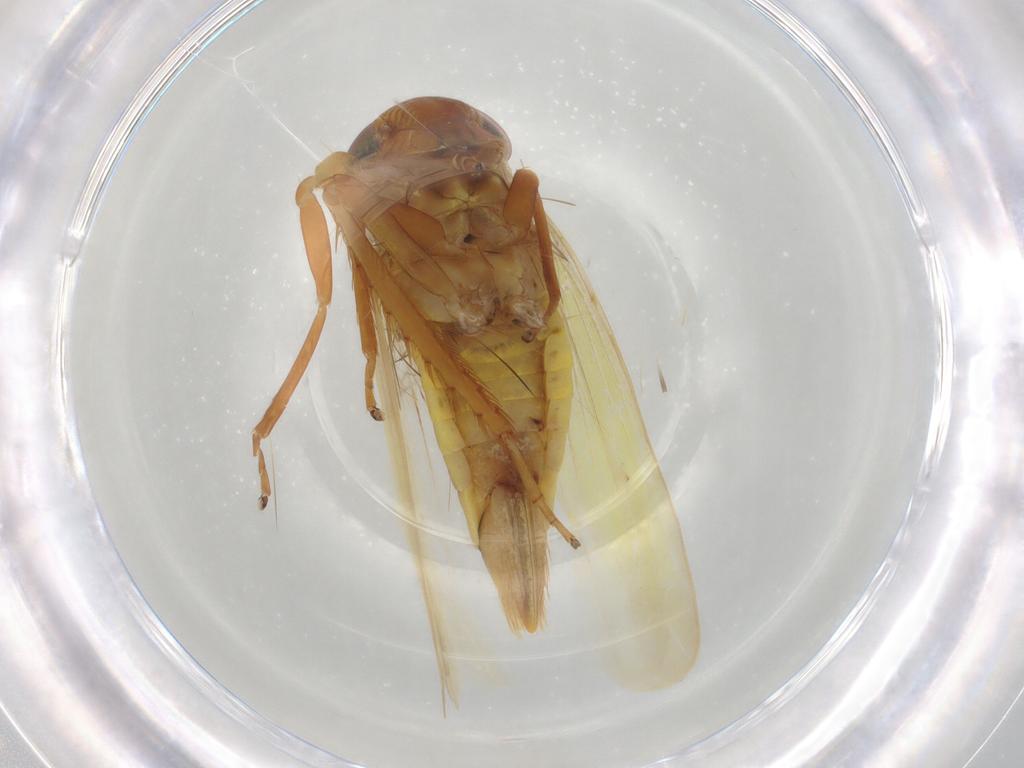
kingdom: Animalia
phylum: Arthropoda
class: Insecta
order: Hemiptera
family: Cicadellidae
